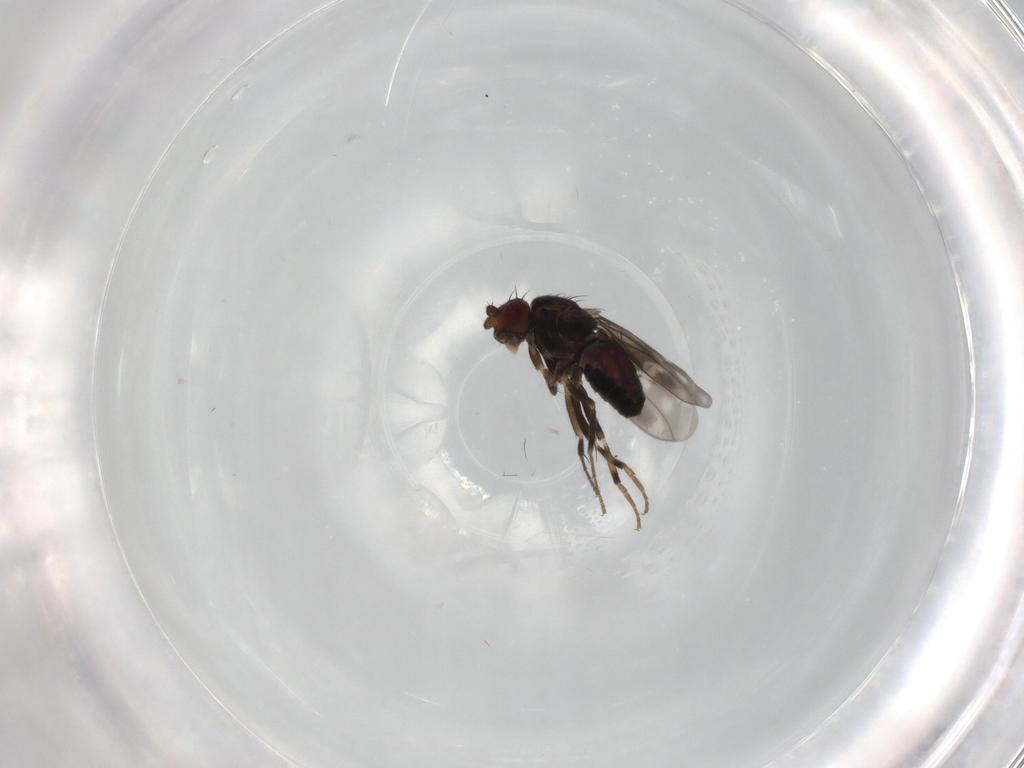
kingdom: Animalia
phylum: Arthropoda
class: Insecta
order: Diptera
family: Sphaeroceridae
